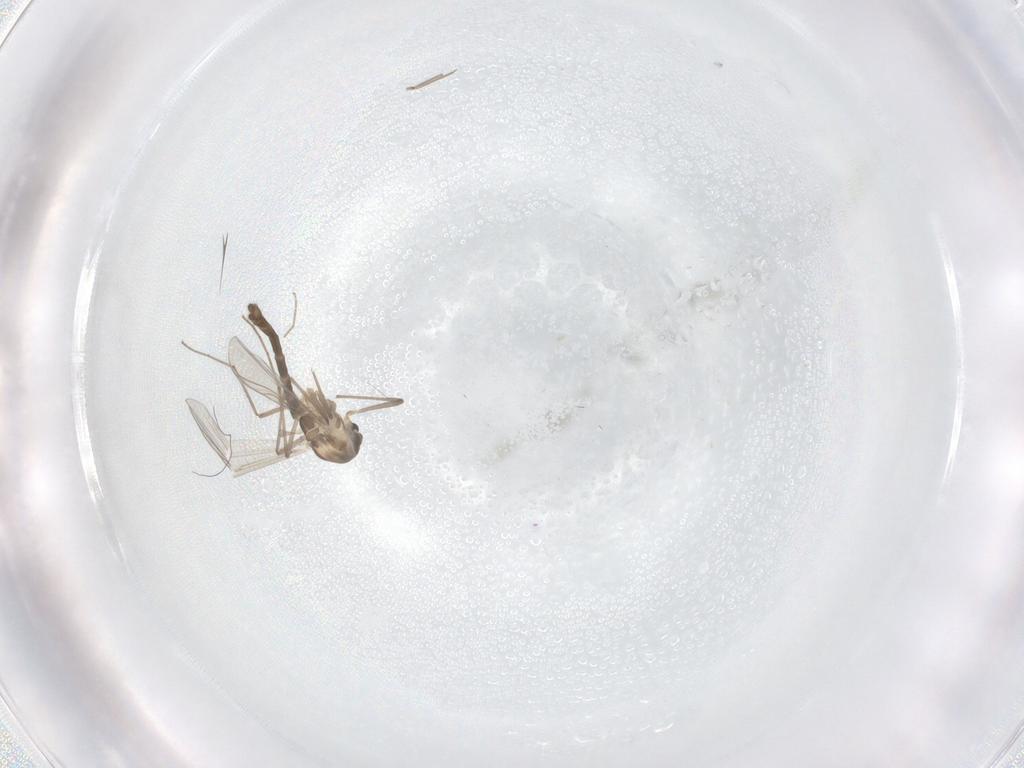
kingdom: Animalia
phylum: Arthropoda
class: Insecta
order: Diptera
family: Chironomidae
